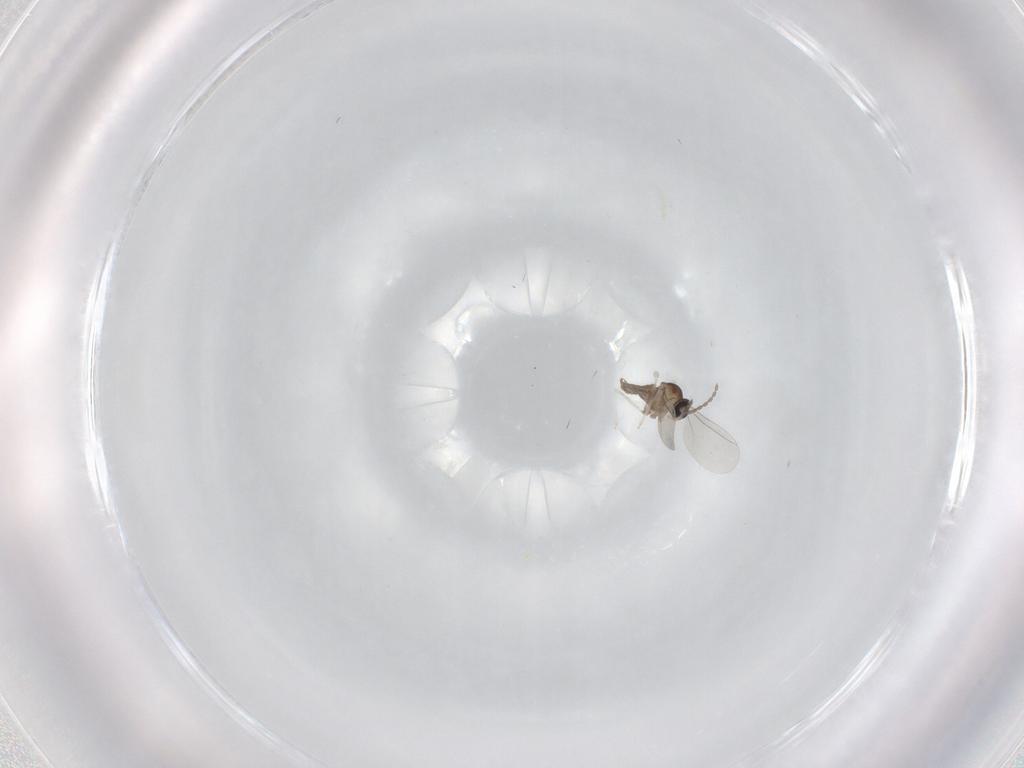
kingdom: Animalia
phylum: Arthropoda
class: Insecta
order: Diptera
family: Cecidomyiidae
